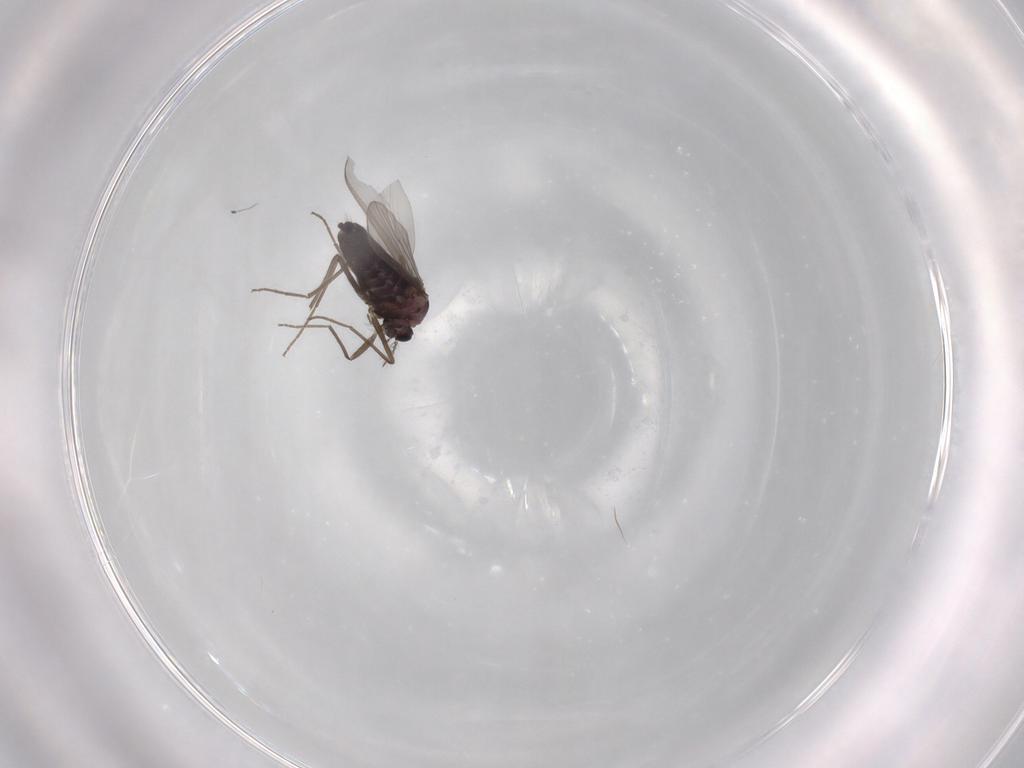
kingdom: Animalia
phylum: Arthropoda
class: Insecta
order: Diptera
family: Chironomidae
